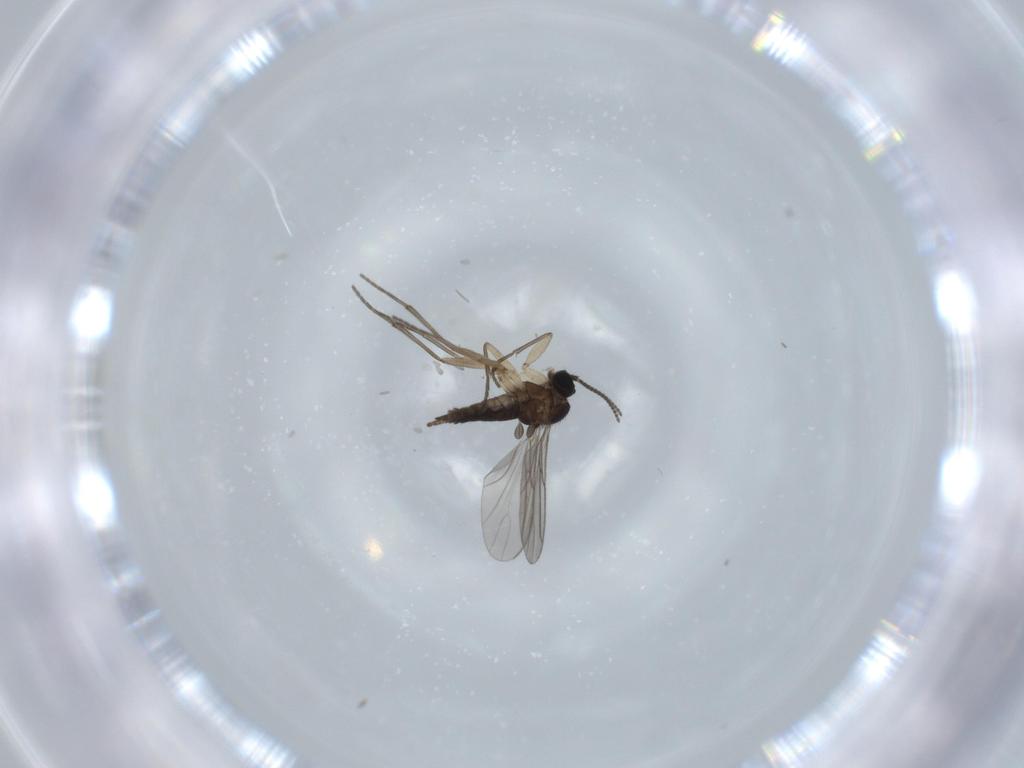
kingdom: Animalia
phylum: Arthropoda
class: Insecta
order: Diptera
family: Sciaridae
